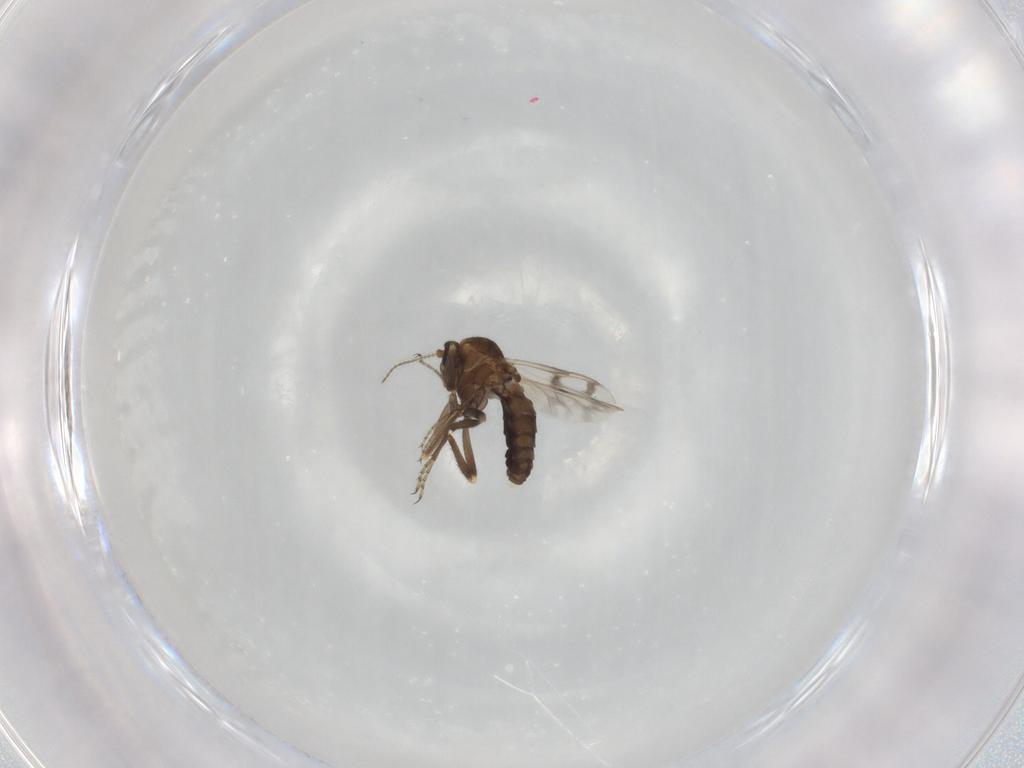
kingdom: Animalia
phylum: Arthropoda
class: Insecta
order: Diptera
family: Ceratopogonidae
